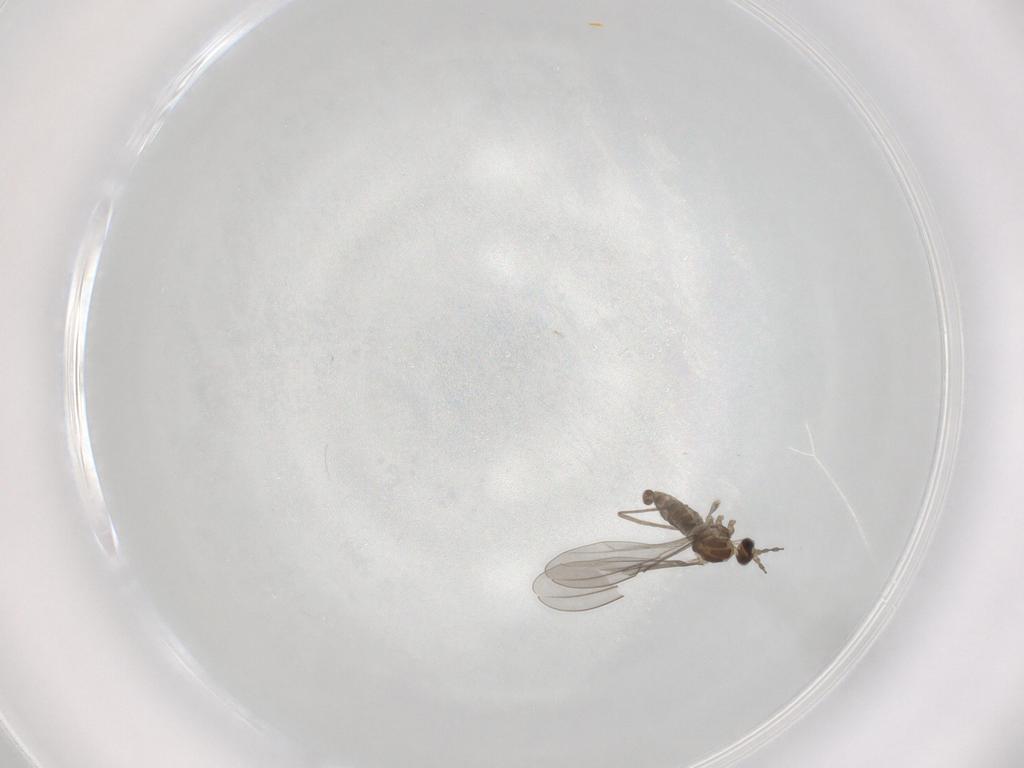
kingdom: Animalia
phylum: Arthropoda
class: Insecta
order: Diptera
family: Cecidomyiidae
